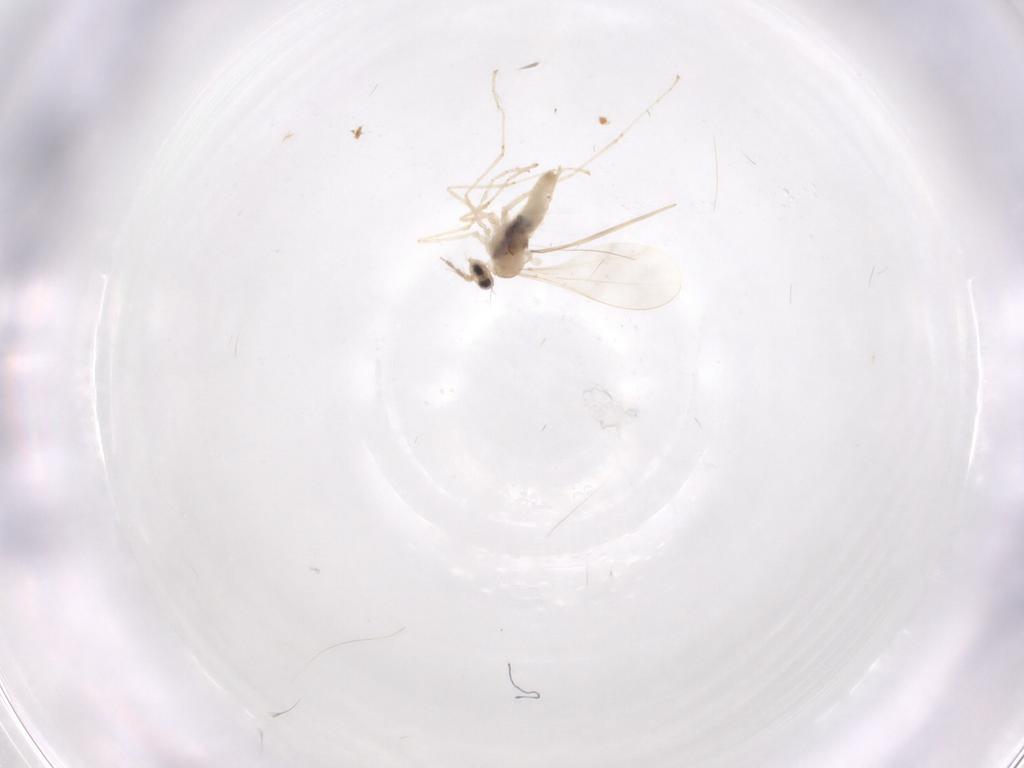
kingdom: Animalia
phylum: Arthropoda
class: Insecta
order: Diptera
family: Cecidomyiidae
